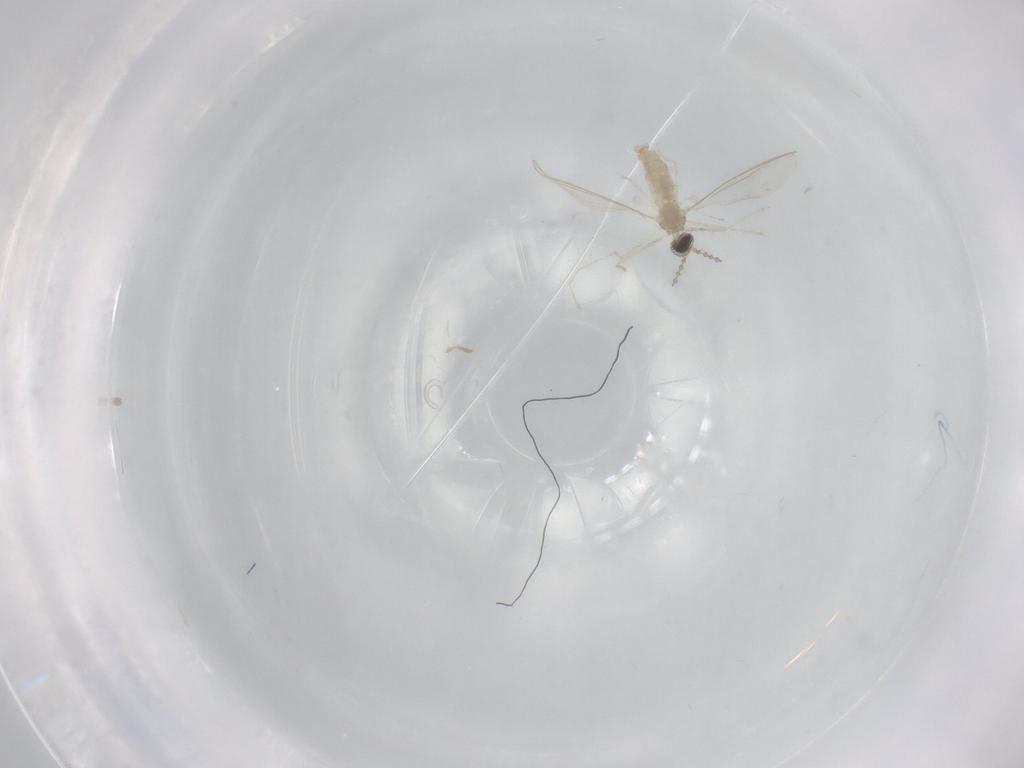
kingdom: Animalia
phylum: Arthropoda
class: Insecta
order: Diptera
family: Cecidomyiidae
